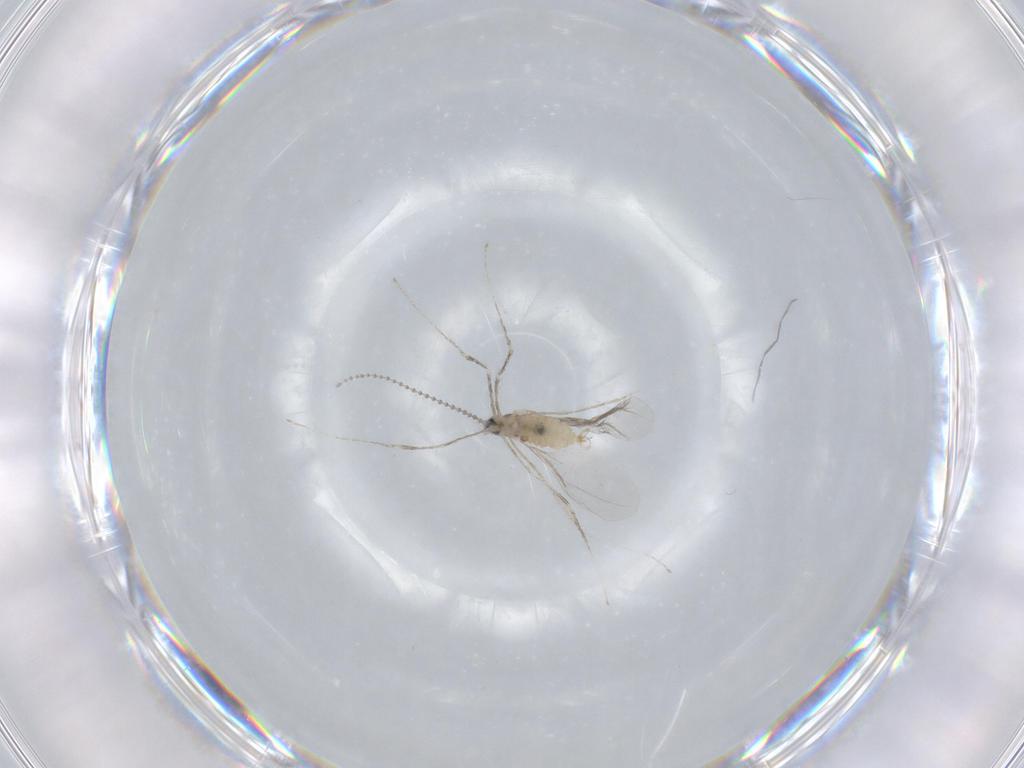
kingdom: Animalia
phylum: Arthropoda
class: Insecta
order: Diptera
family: Cecidomyiidae
